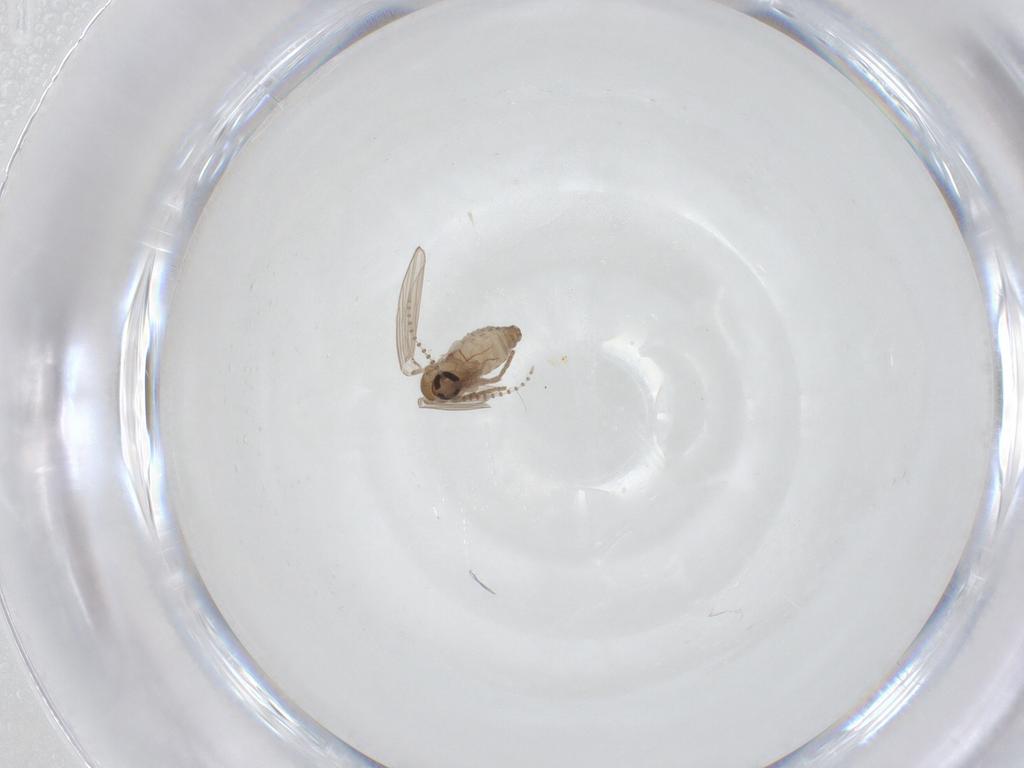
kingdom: Animalia
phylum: Arthropoda
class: Insecta
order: Diptera
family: Psychodidae
